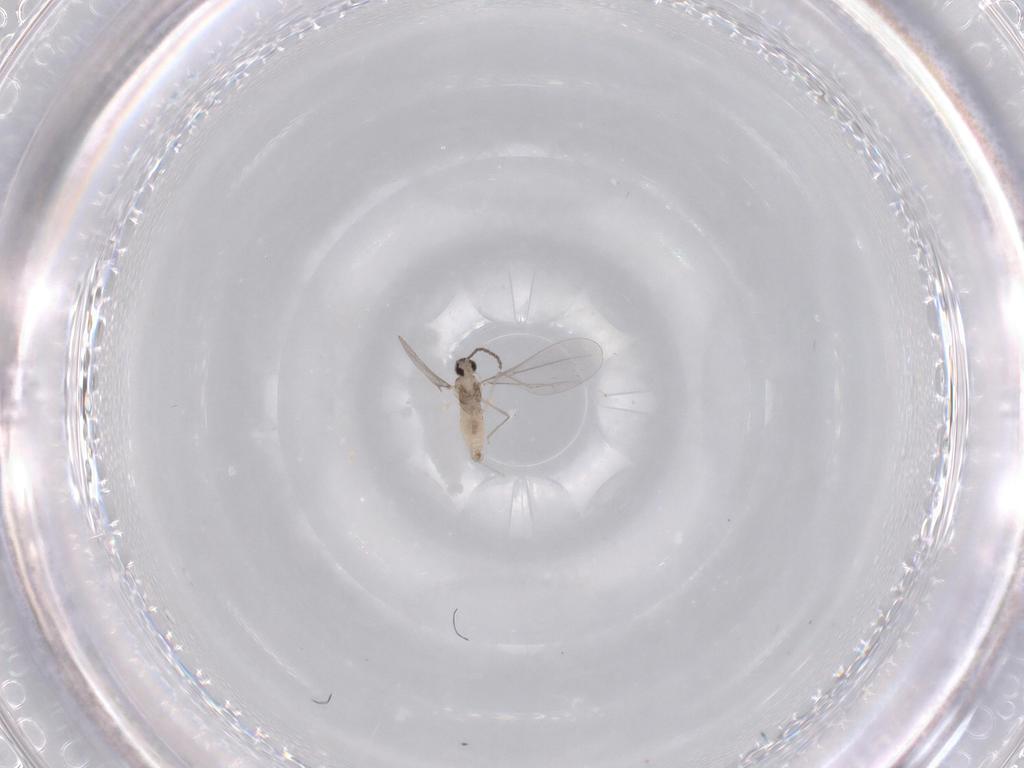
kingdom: Animalia
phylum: Arthropoda
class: Insecta
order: Diptera
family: Cecidomyiidae
